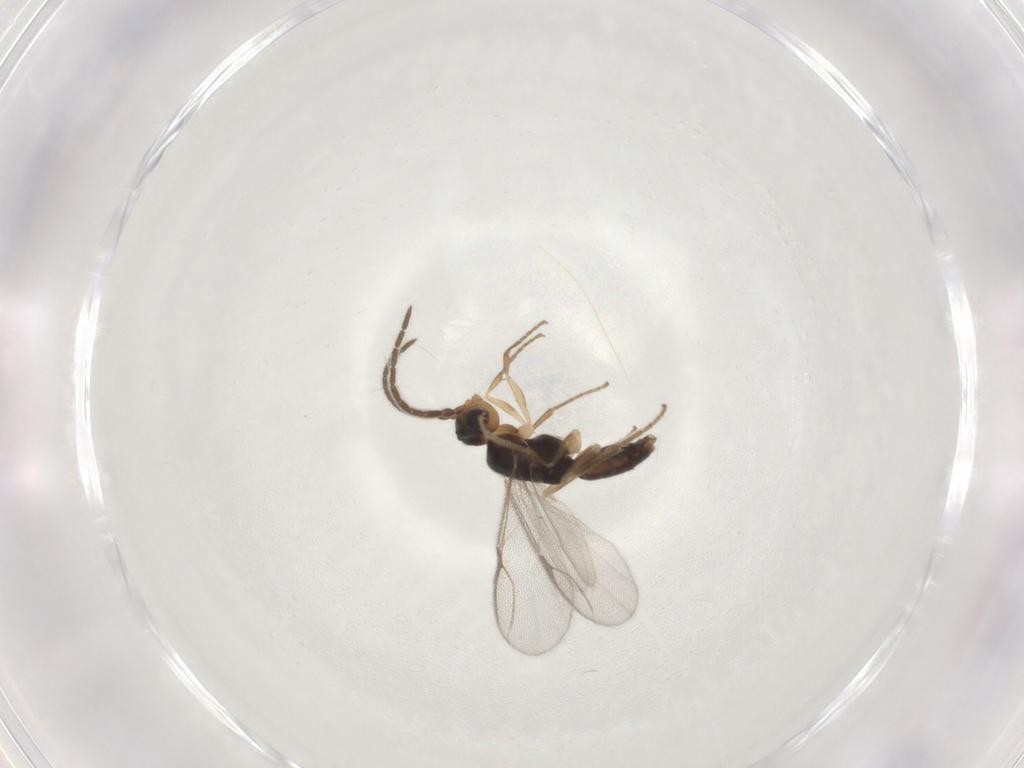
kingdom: Animalia
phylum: Arthropoda
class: Insecta
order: Hymenoptera
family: Dryinidae
